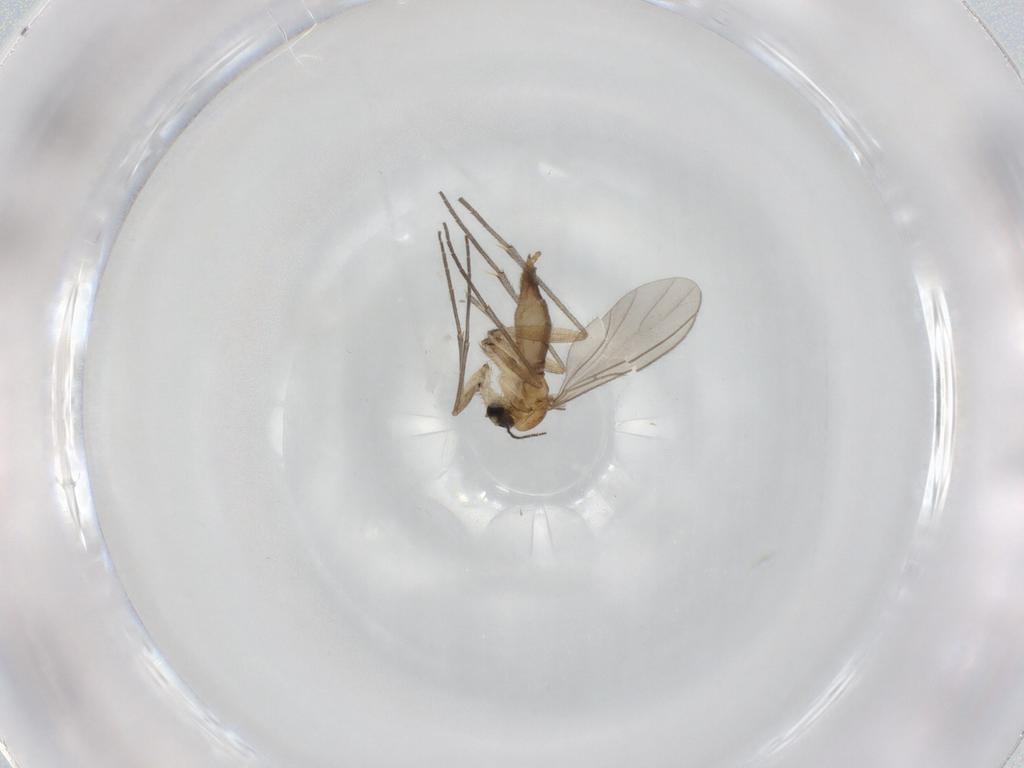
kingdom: Animalia
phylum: Arthropoda
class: Insecta
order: Diptera
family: Sciaridae
